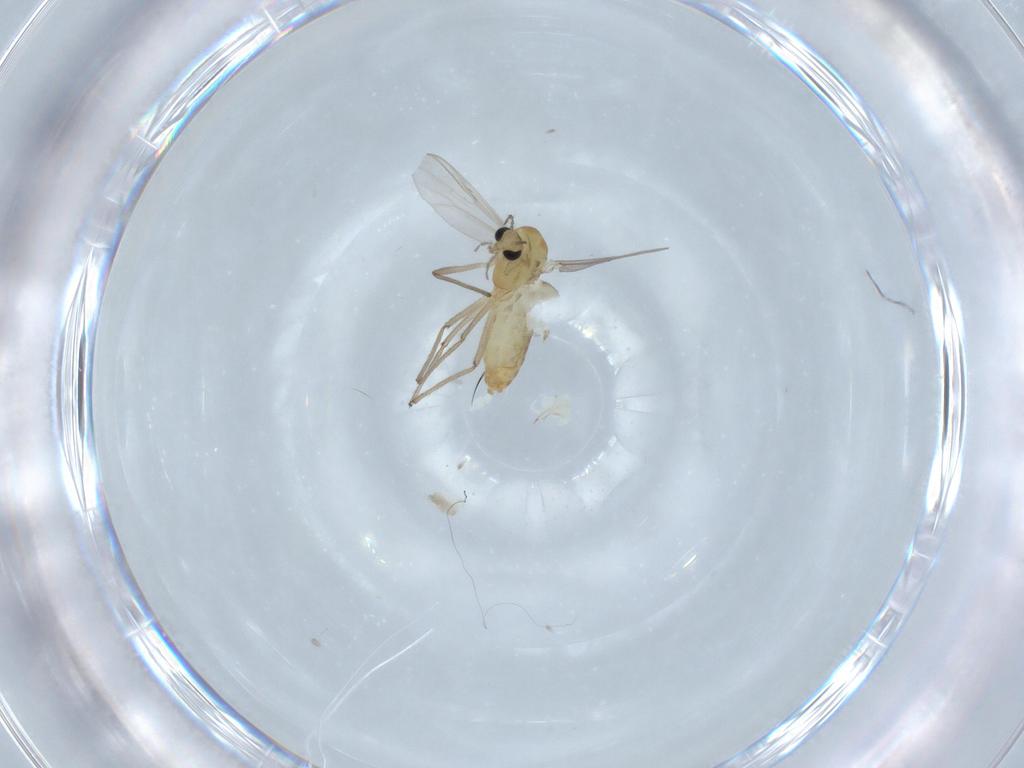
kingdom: Animalia
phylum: Arthropoda
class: Insecta
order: Diptera
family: Chironomidae
